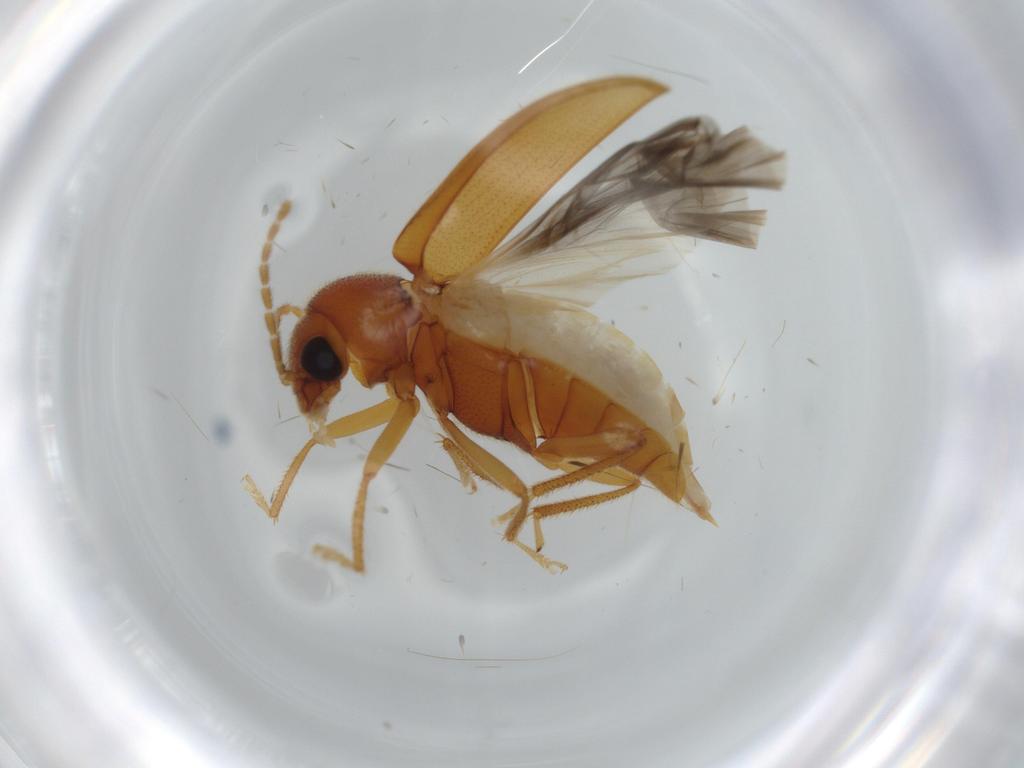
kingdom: Animalia
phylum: Arthropoda
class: Insecta
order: Coleoptera
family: Ptilodactylidae
